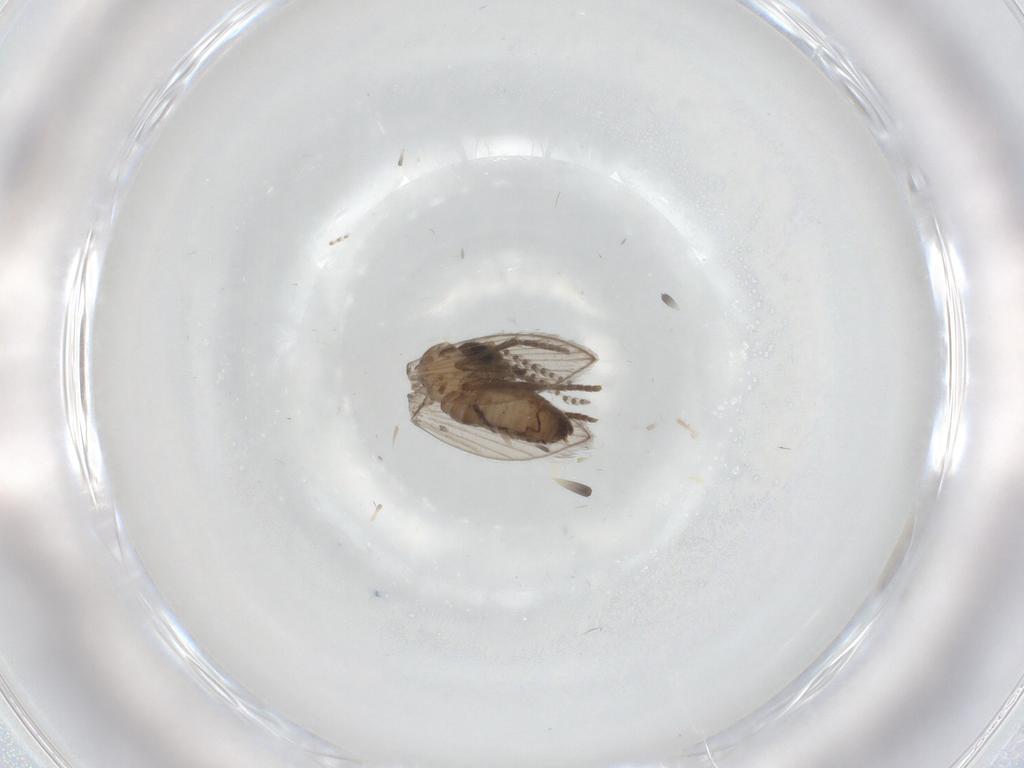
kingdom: Animalia
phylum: Arthropoda
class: Insecta
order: Diptera
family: Psychodidae
